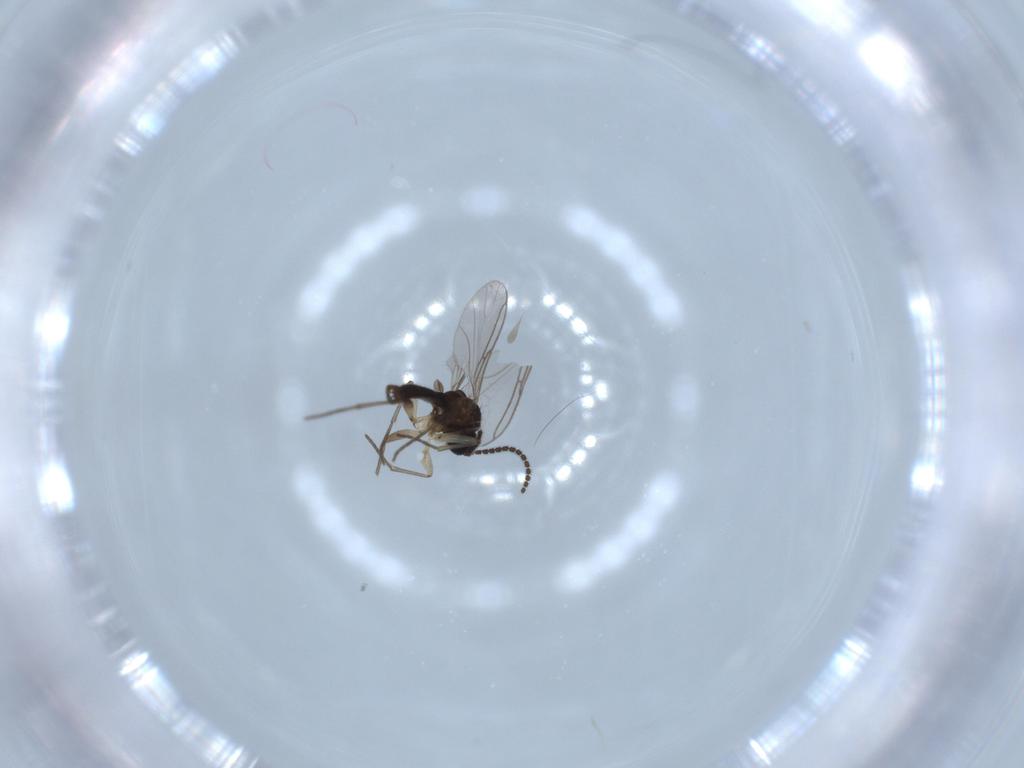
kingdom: Animalia
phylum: Arthropoda
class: Insecta
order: Diptera
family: Sciaridae
